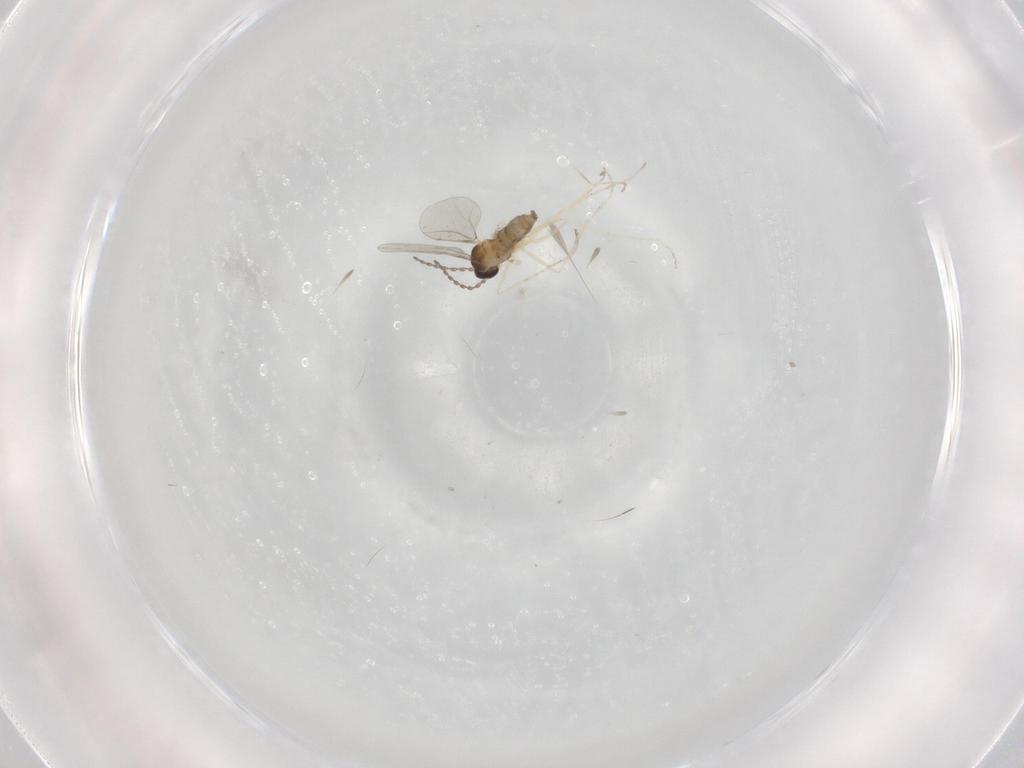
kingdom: Animalia
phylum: Arthropoda
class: Insecta
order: Diptera
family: Cecidomyiidae
